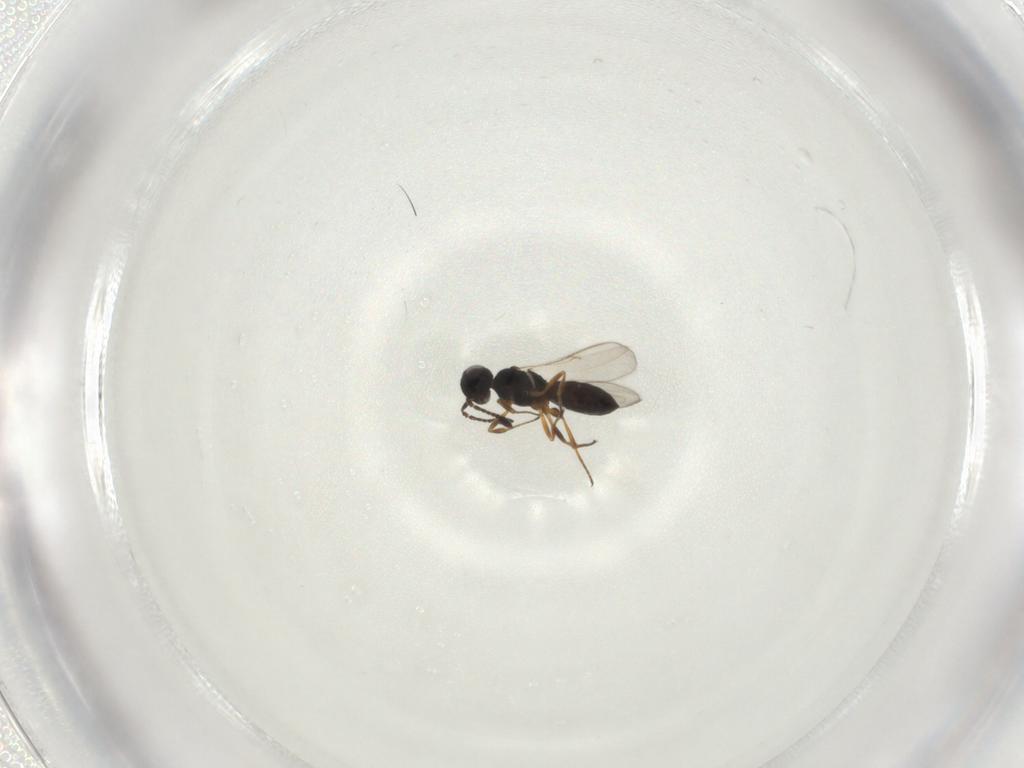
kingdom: Animalia
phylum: Arthropoda
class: Insecta
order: Hymenoptera
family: Scelionidae
